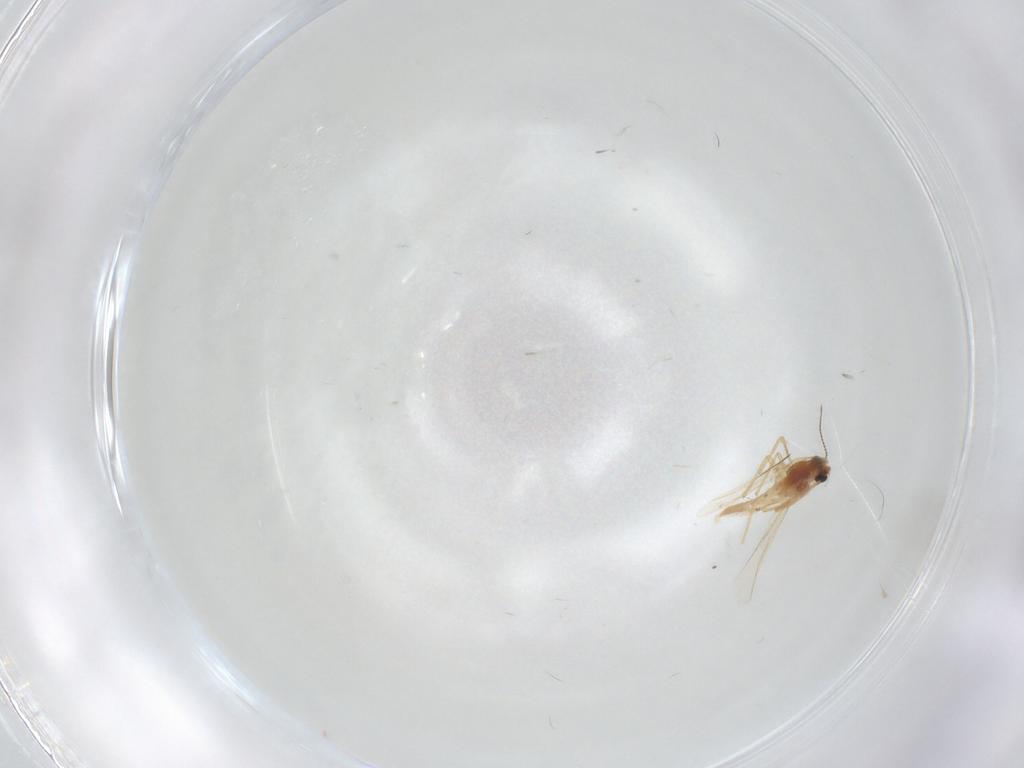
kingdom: Animalia
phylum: Arthropoda
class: Insecta
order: Diptera
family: Chironomidae
